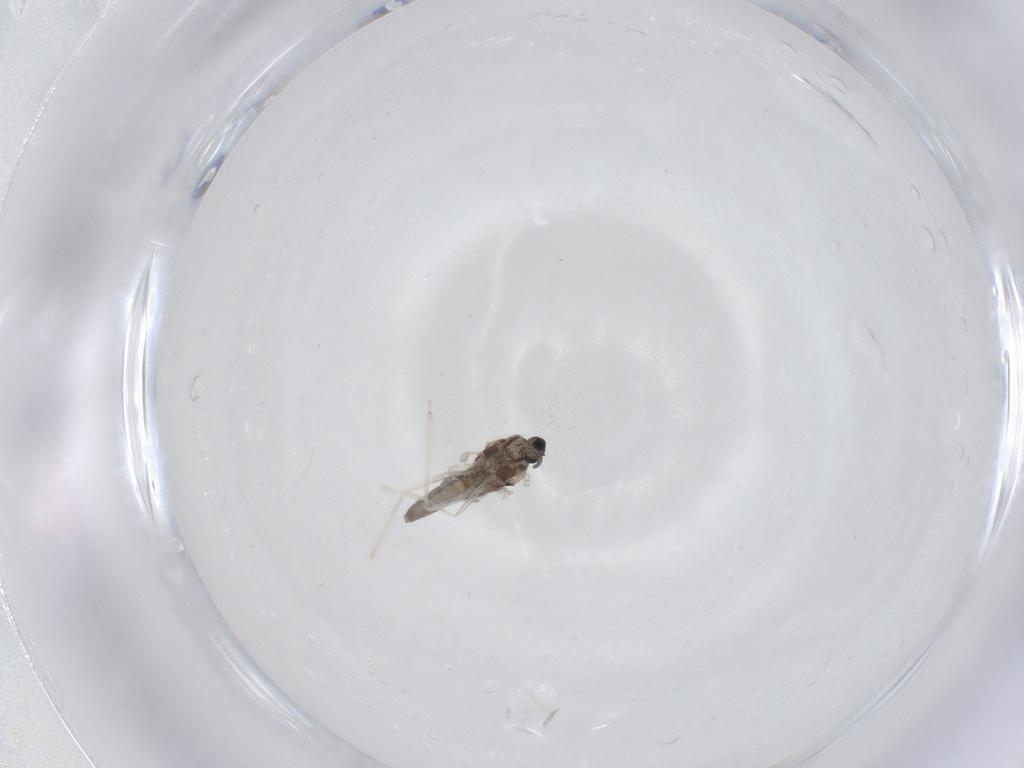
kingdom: Animalia
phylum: Arthropoda
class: Insecta
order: Diptera
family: Cecidomyiidae
